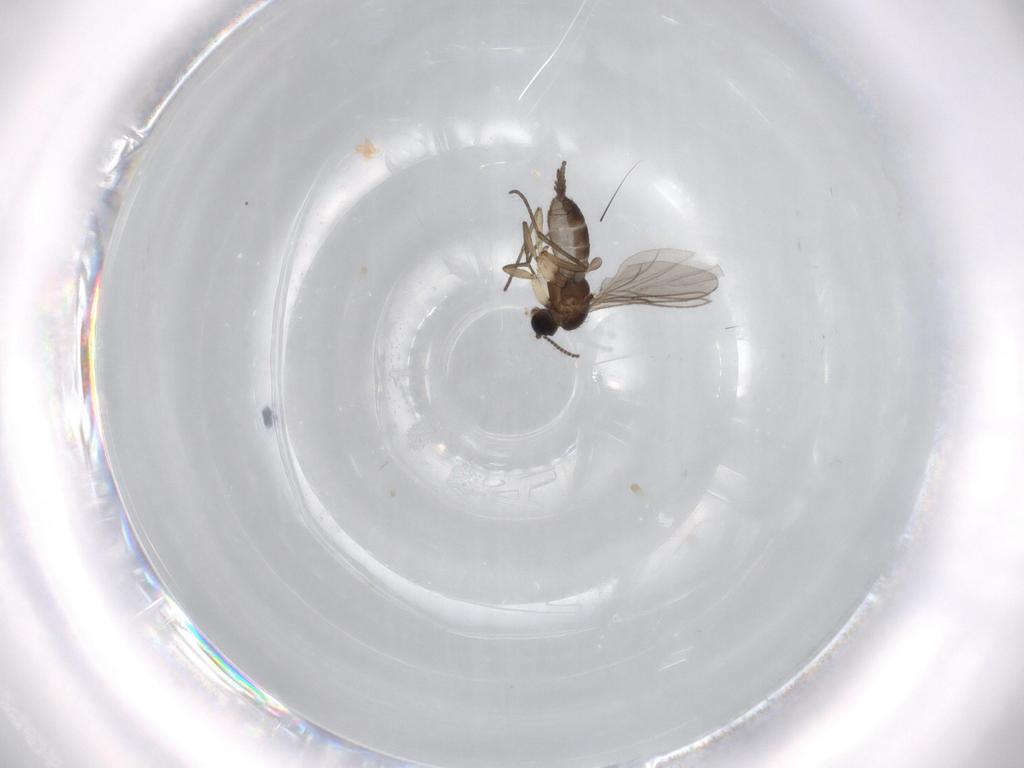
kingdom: Animalia
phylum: Arthropoda
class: Insecta
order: Diptera
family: Sciaridae
